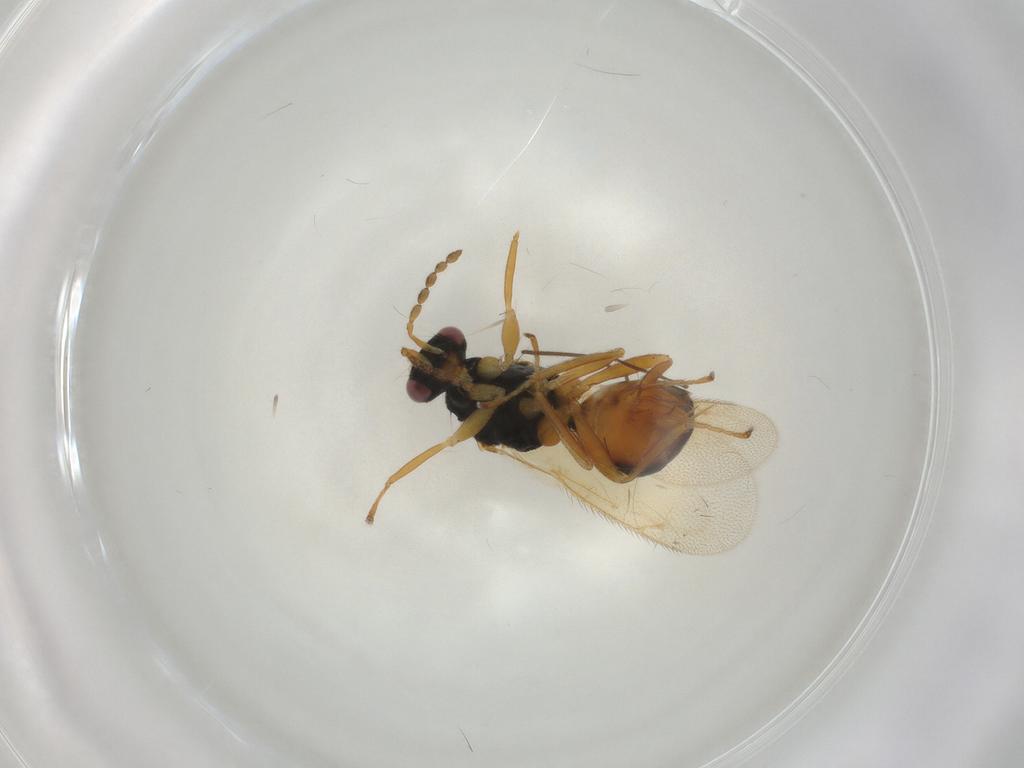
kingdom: Animalia
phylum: Arthropoda
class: Insecta
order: Hymenoptera
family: Eulophidae
